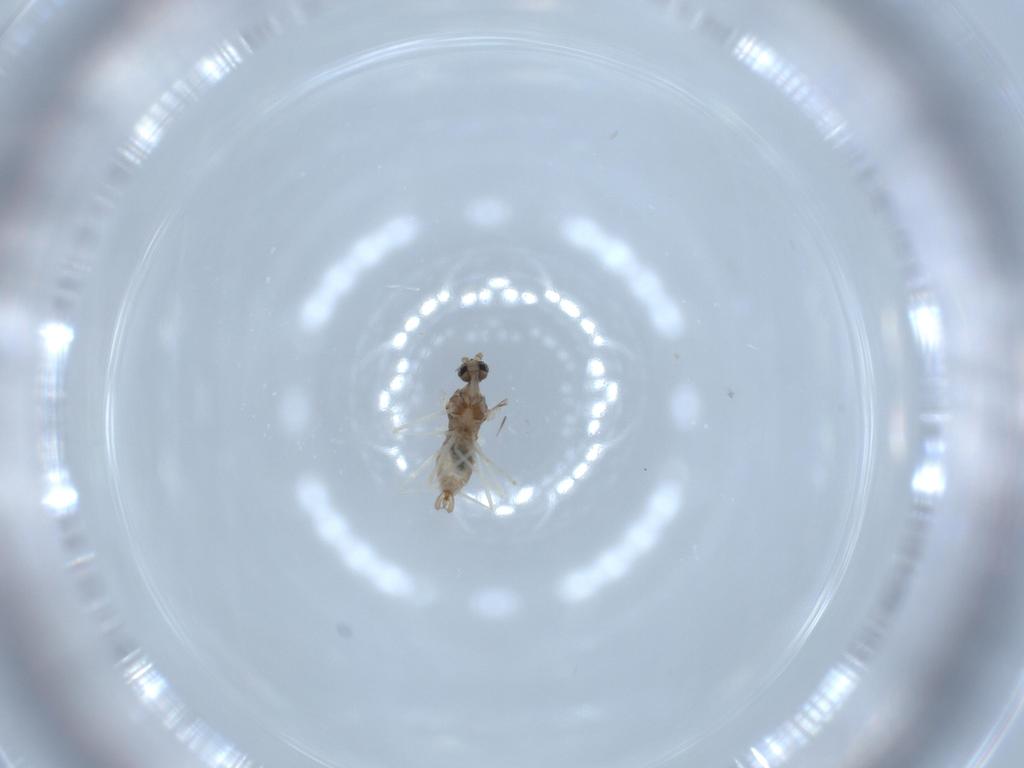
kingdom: Animalia
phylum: Arthropoda
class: Insecta
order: Diptera
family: Cecidomyiidae
